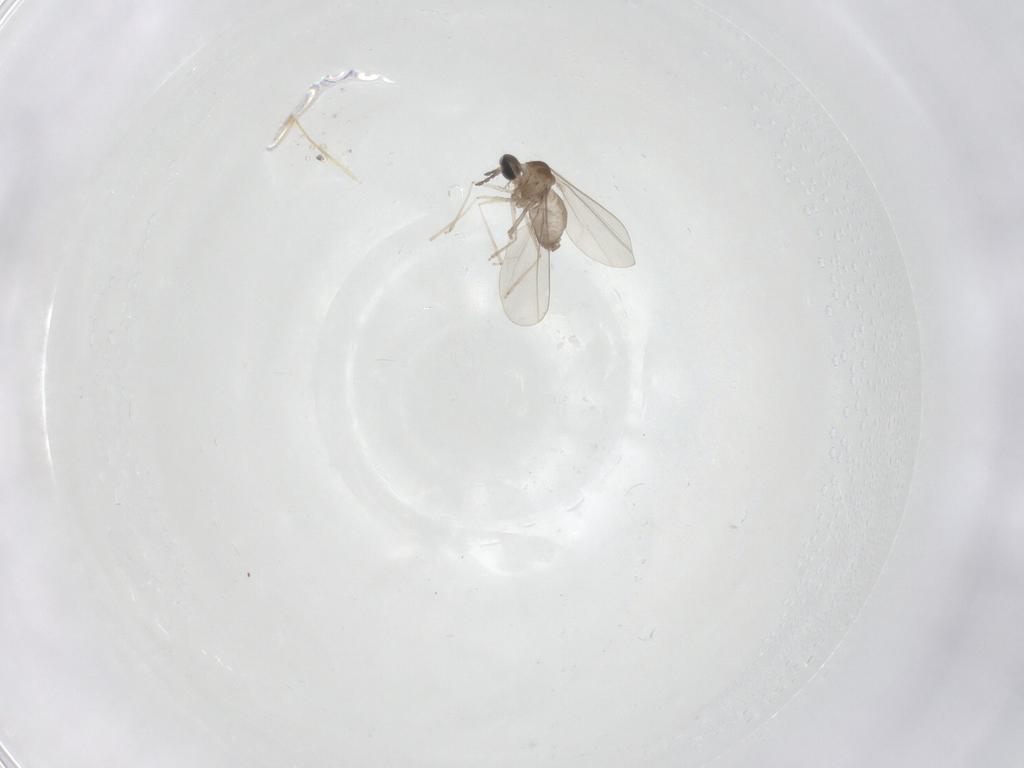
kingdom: Animalia
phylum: Arthropoda
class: Insecta
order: Diptera
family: Cecidomyiidae
